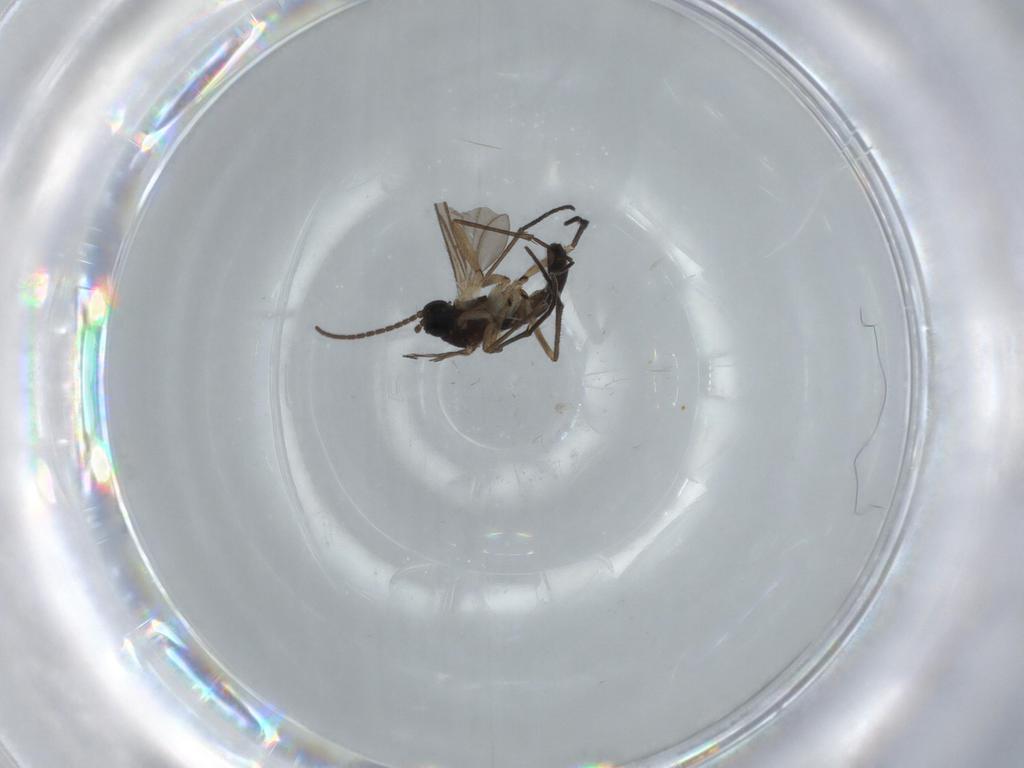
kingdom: Animalia
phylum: Arthropoda
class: Insecta
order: Diptera
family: Sciaridae
